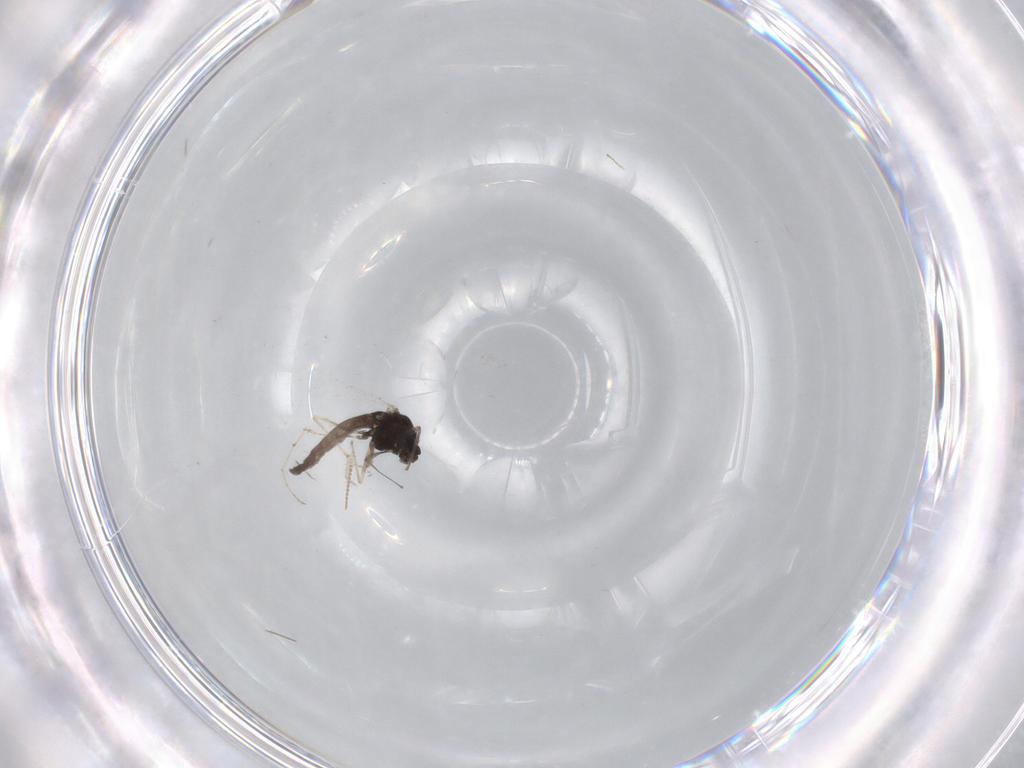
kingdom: Animalia
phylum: Arthropoda
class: Insecta
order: Diptera
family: Chironomidae
